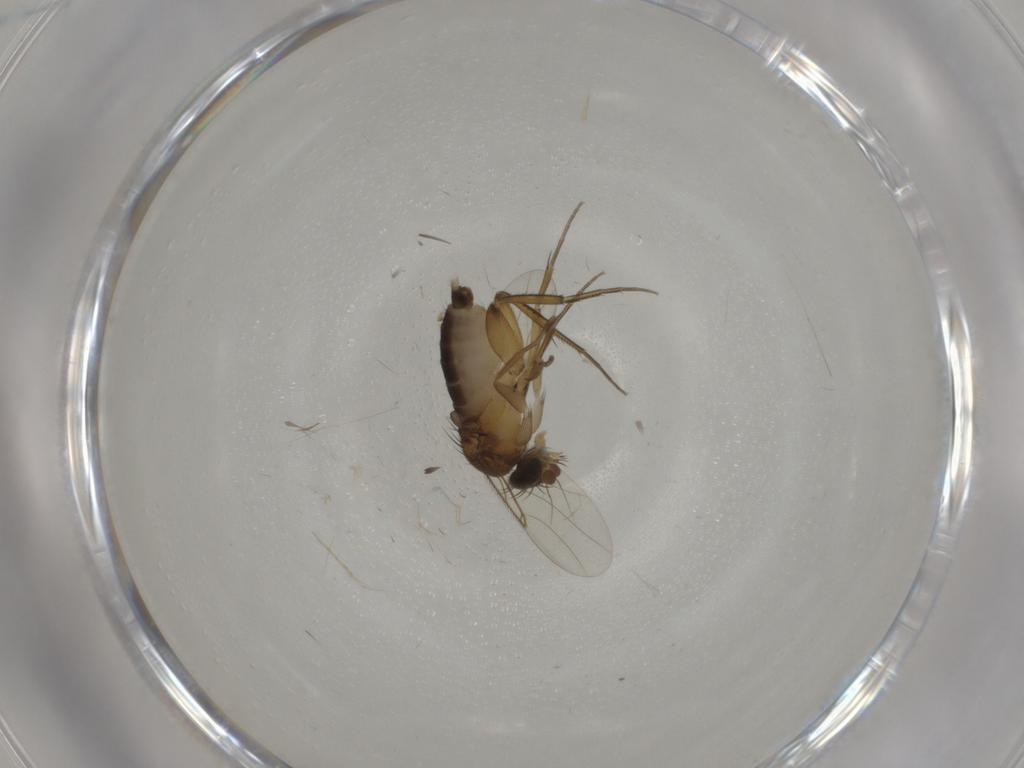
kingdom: Animalia
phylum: Arthropoda
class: Insecta
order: Diptera
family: Phoridae
